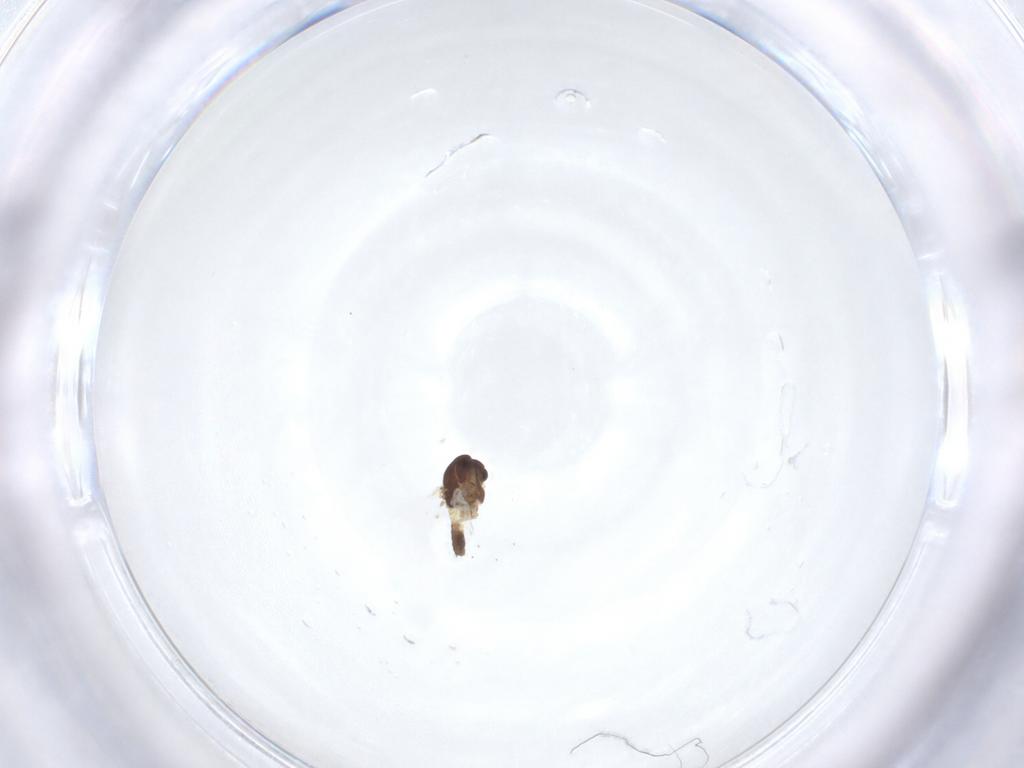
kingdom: Animalia
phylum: Arthropoda
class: Insecta
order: Diptera
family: Chironomidae
